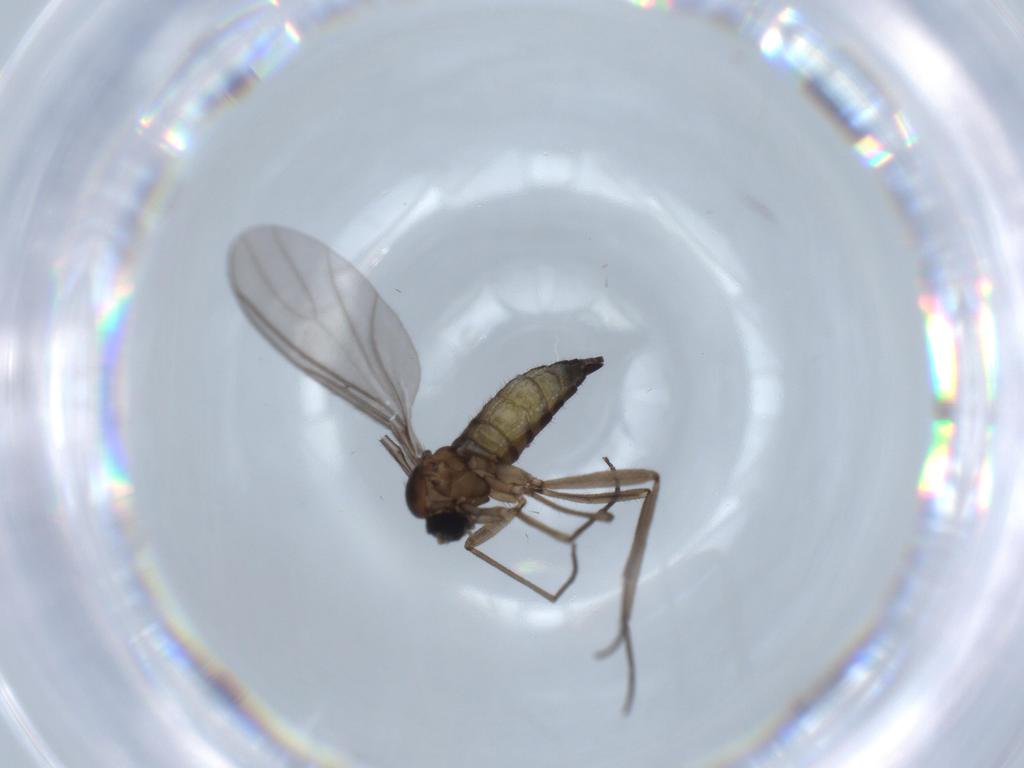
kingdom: Animalia
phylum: Arthropoda
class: Insecta
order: Diptera
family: Sciaridae
